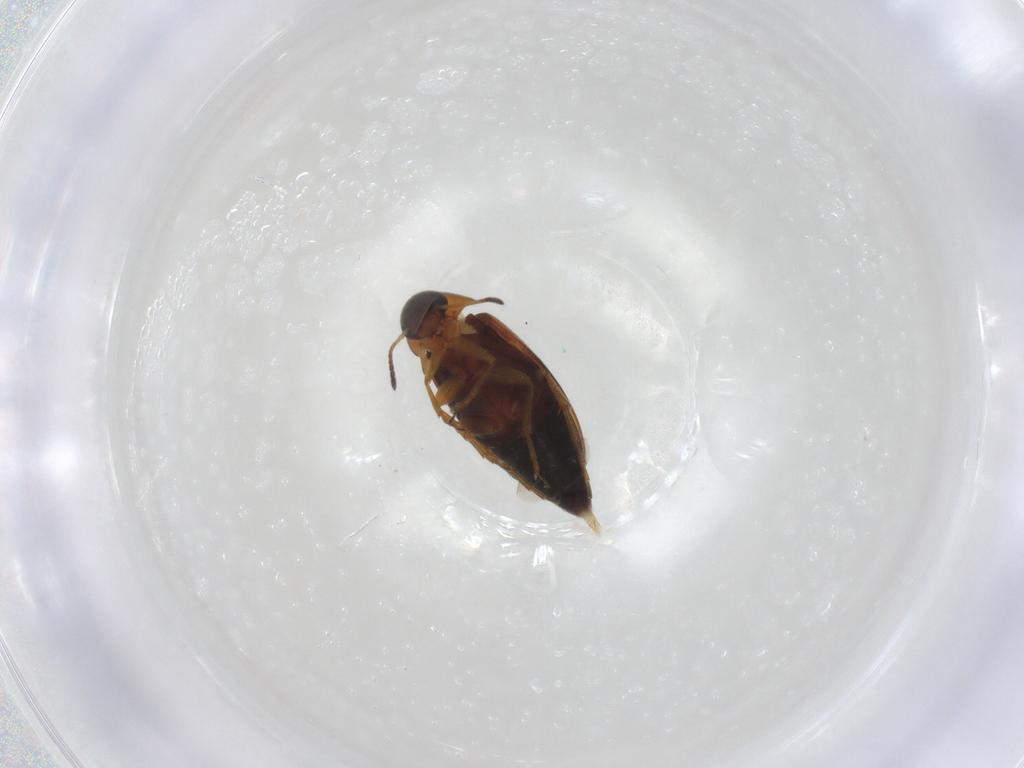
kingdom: Animalia
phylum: Arthropoda
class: Insecta
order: Coleoptera
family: Scraptiidae
